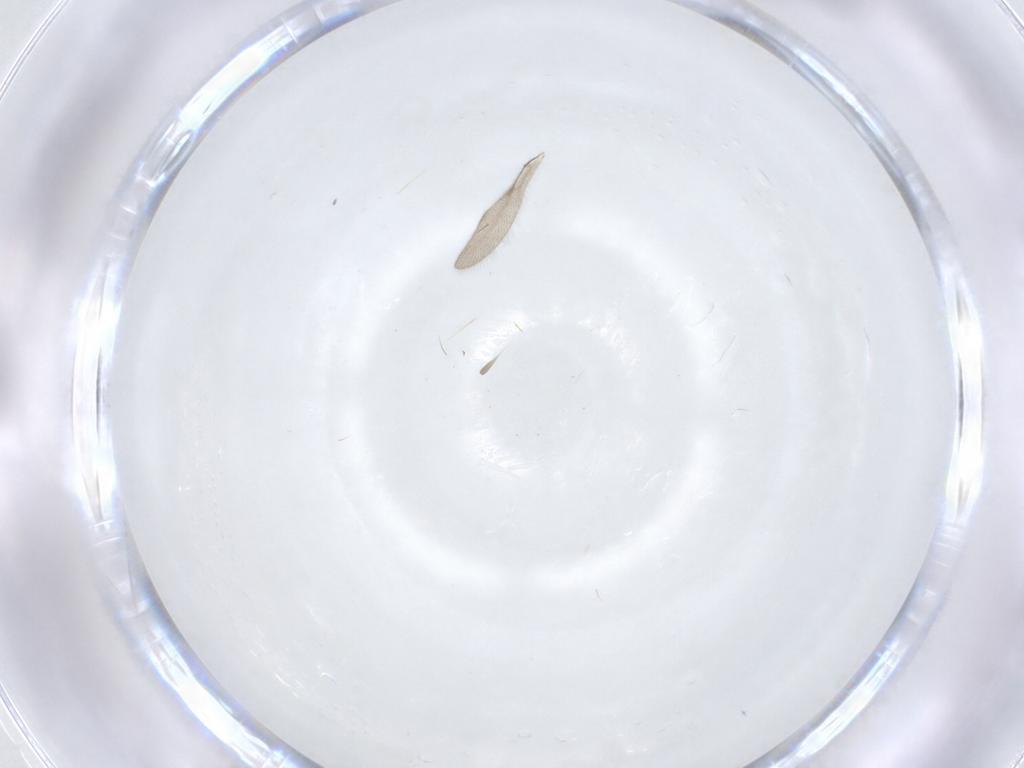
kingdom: Animalia
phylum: Arthropoda
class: Insecta
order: Hymenoptera
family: Formicidae
